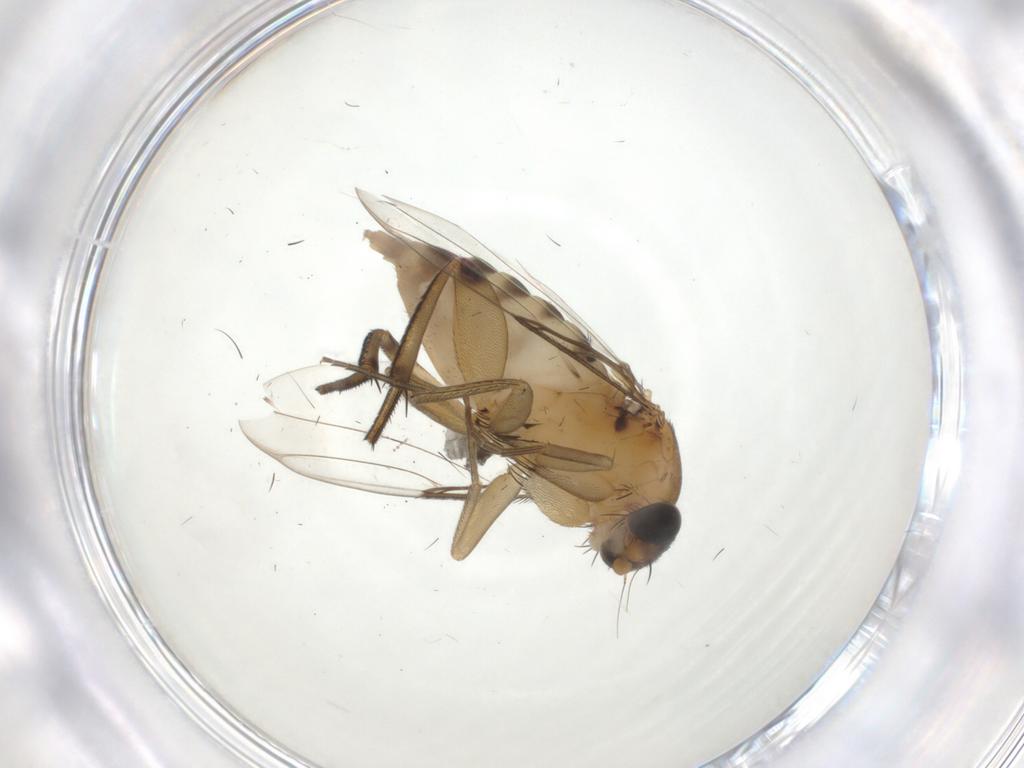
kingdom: Animalia
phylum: Arthropoda
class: Insecta
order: Diptera
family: Phoridae
